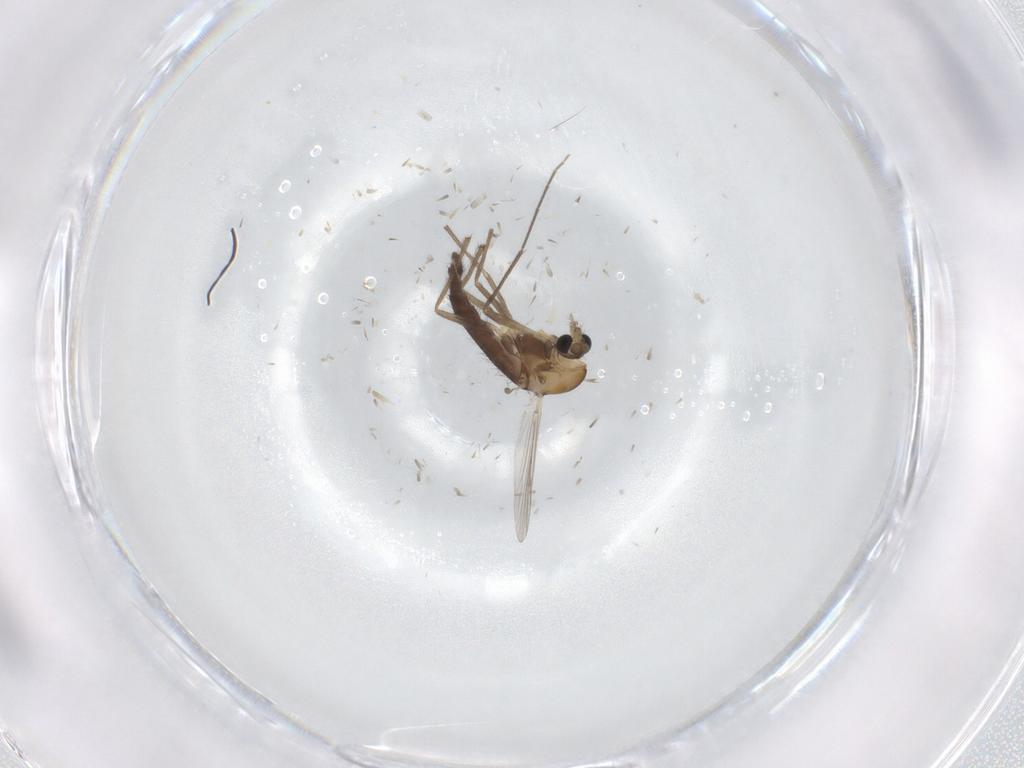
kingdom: Animalia
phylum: Arthropoda
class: Insecta
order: Diptera
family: Chironomidae
